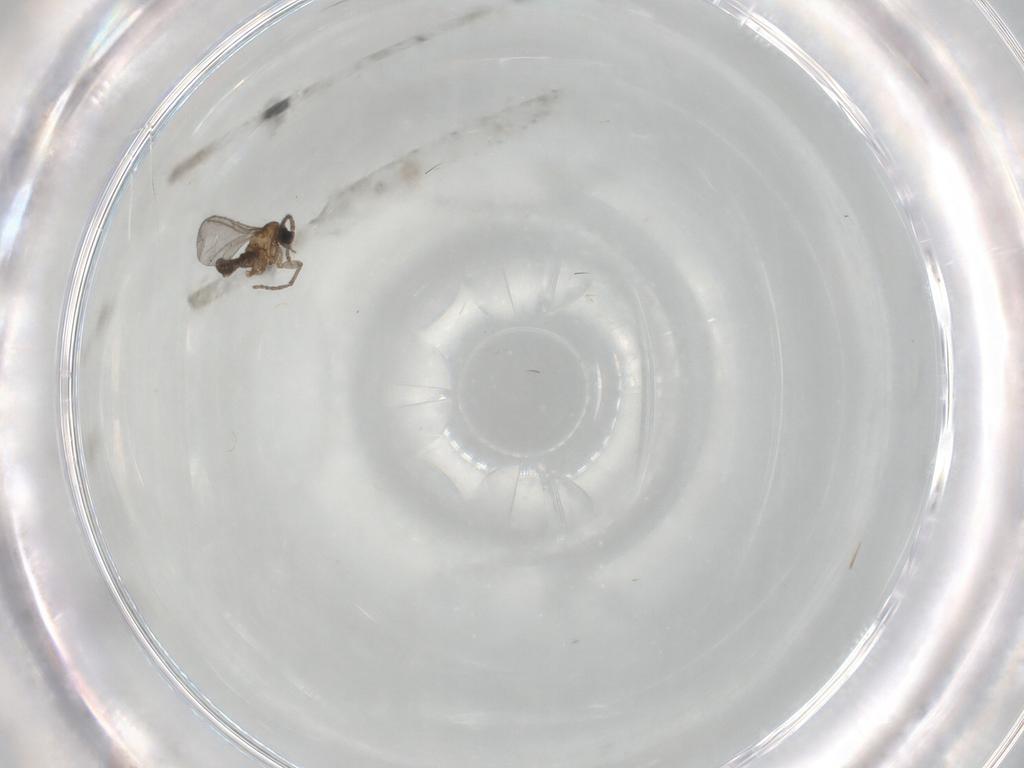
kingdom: Animalia
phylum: Arthropoda
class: Insecta
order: Diptera
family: Sciaridae
